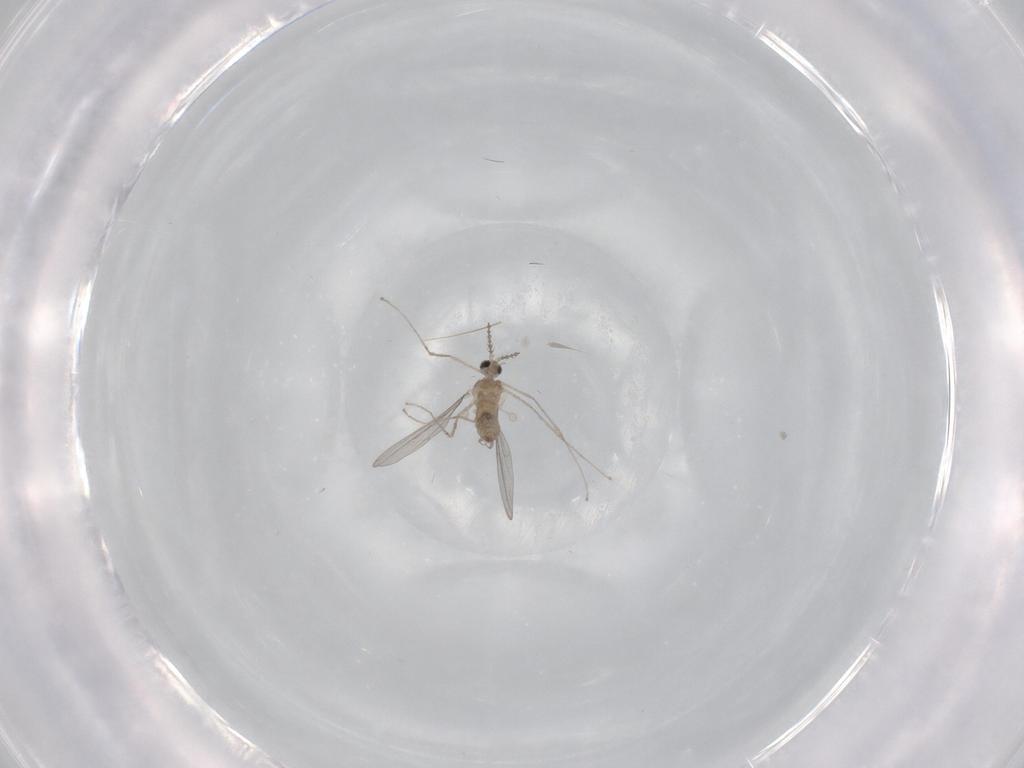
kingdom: Animalia
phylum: Arthropoda
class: Insecta
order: Diptera
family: Cecidomyiidae
